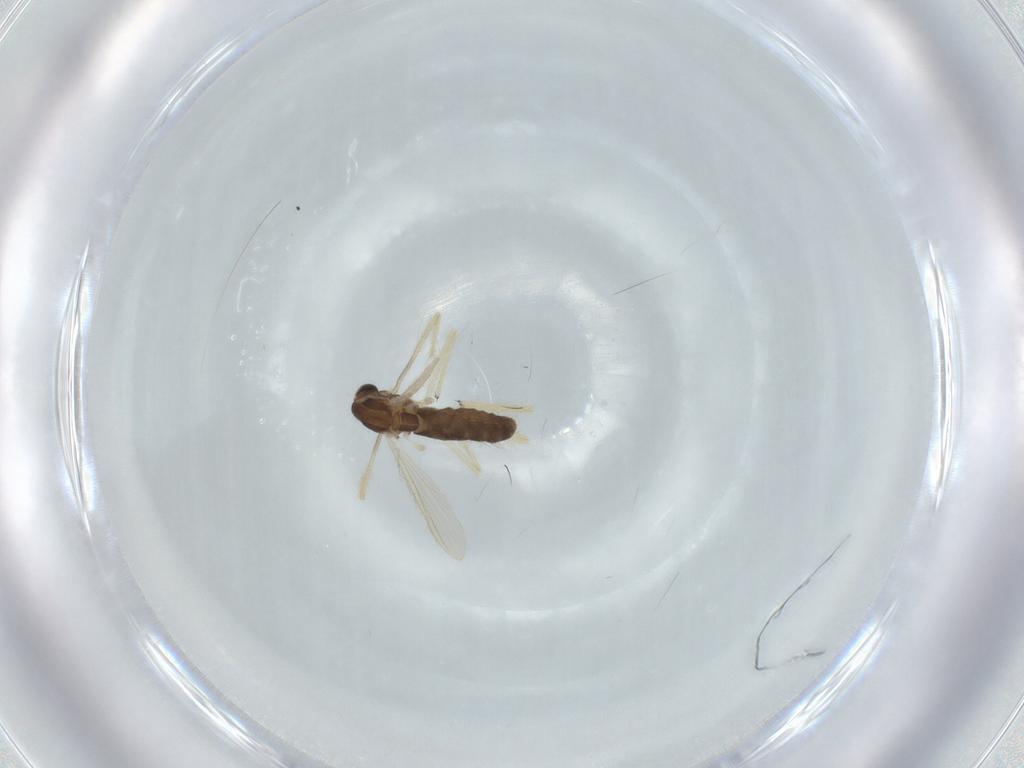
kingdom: Animalia
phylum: Arthropoda
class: Insecta
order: Diptera
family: Chironomidae
